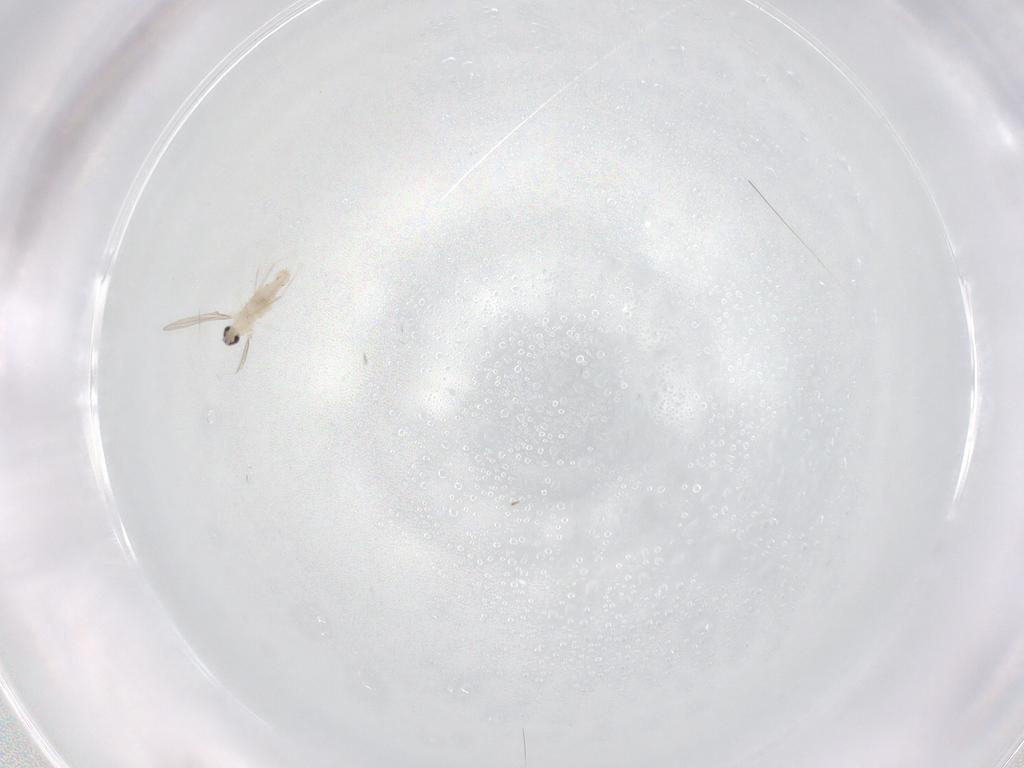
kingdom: Animalia
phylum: Arthropoda
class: Insecta
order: Diptera
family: Cecidomyiidae
